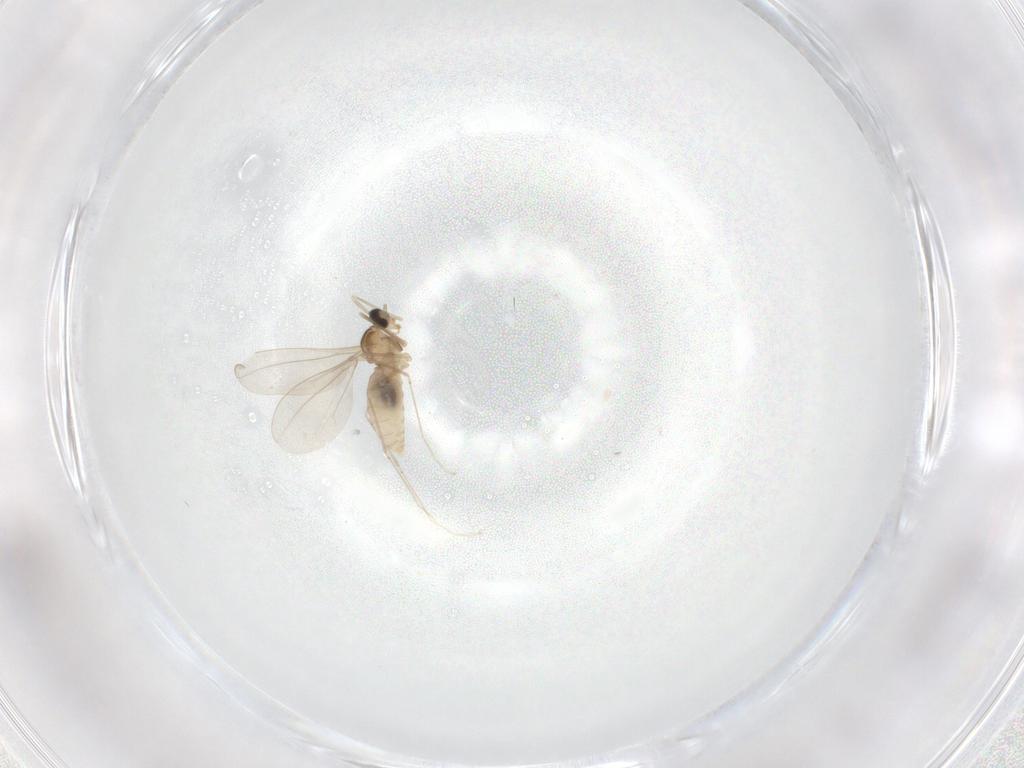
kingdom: Animalia
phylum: Arthropoda
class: Insecta
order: Diptera
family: Cecidomyiidae
